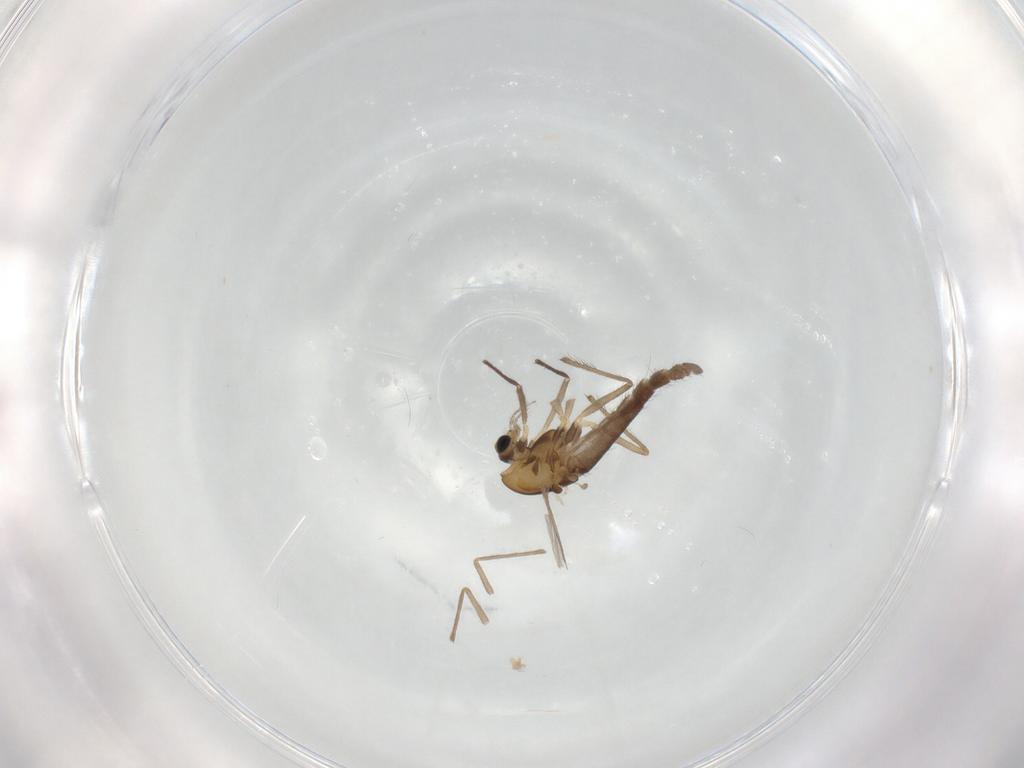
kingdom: Animalia
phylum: Arthropoda
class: Insecta
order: Diptera
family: Chironomidae
